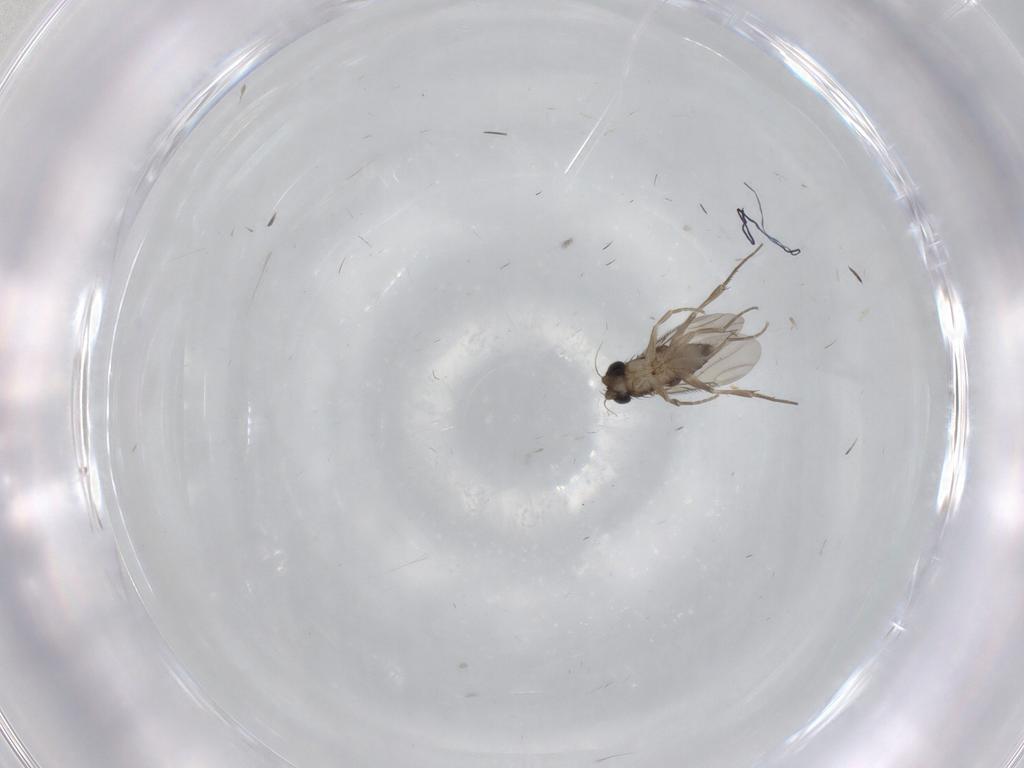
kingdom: Animalia
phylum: Arthropoda
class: Insecta
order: Diptera
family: Phoridae
